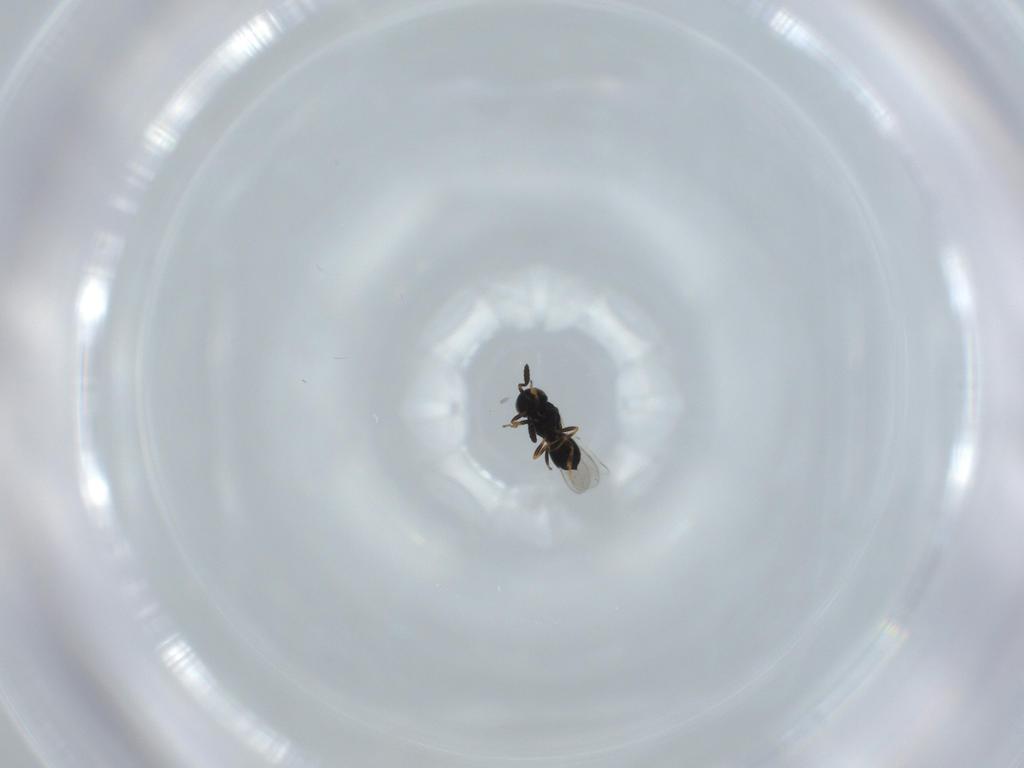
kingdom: Animalia
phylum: Arthropoda
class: Insecta
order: Hymenoptera
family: Scelionidae
